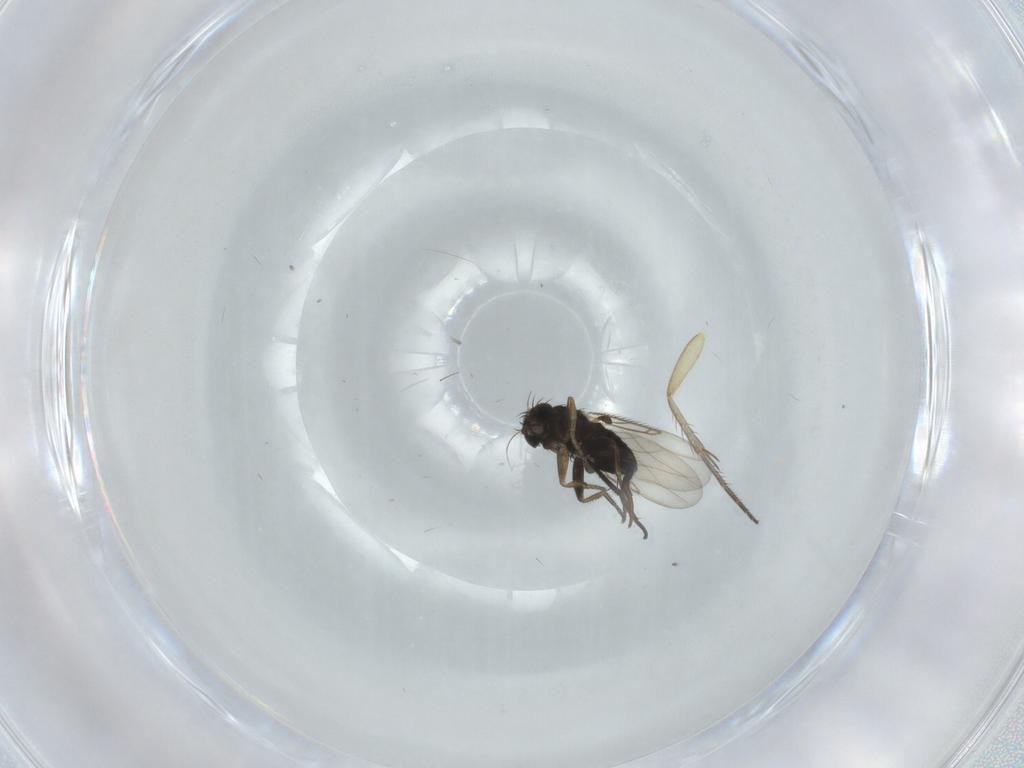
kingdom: Animalia
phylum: Arthropoda
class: Insecta
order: Diptera
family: Mycetophilidae
